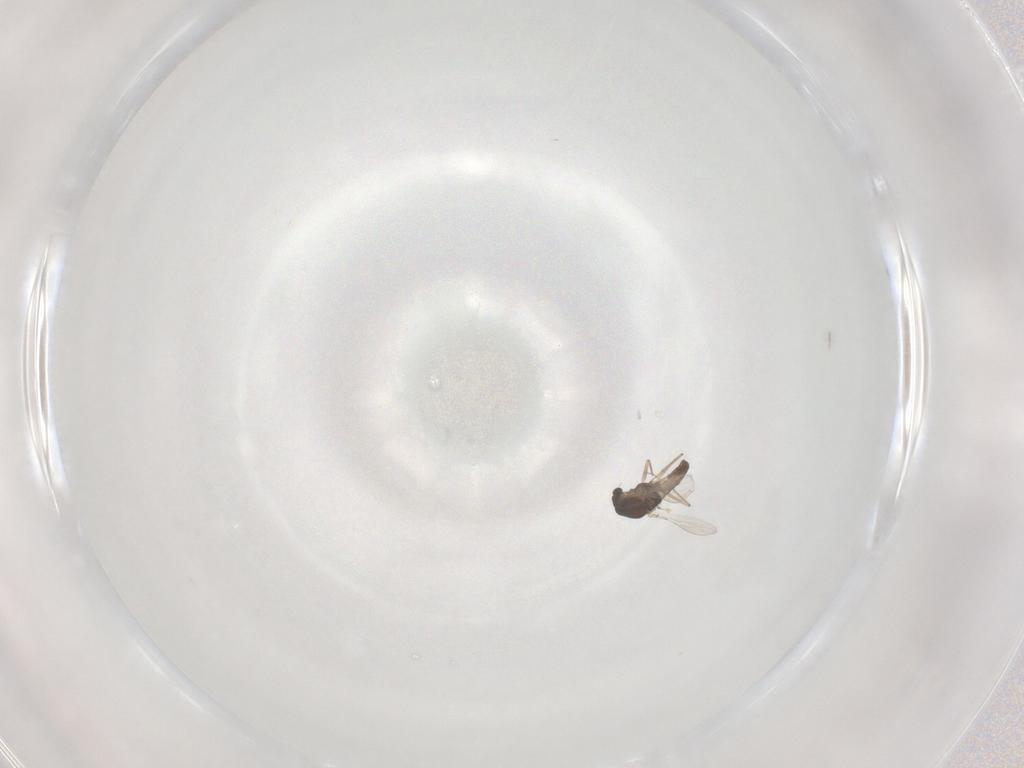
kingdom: Animalia
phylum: Arthropoda
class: Insecta
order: Diptera
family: Chironomidae
